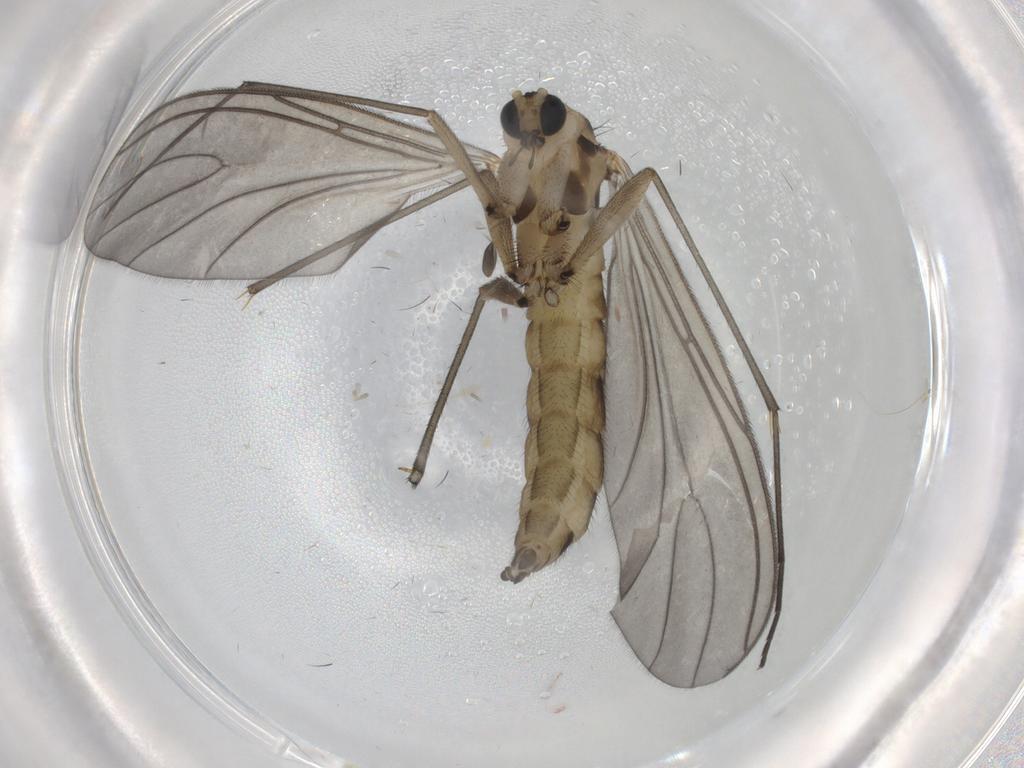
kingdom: Animalia
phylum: Arthropoda
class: Insecta
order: Diptera
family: Sciaridae
